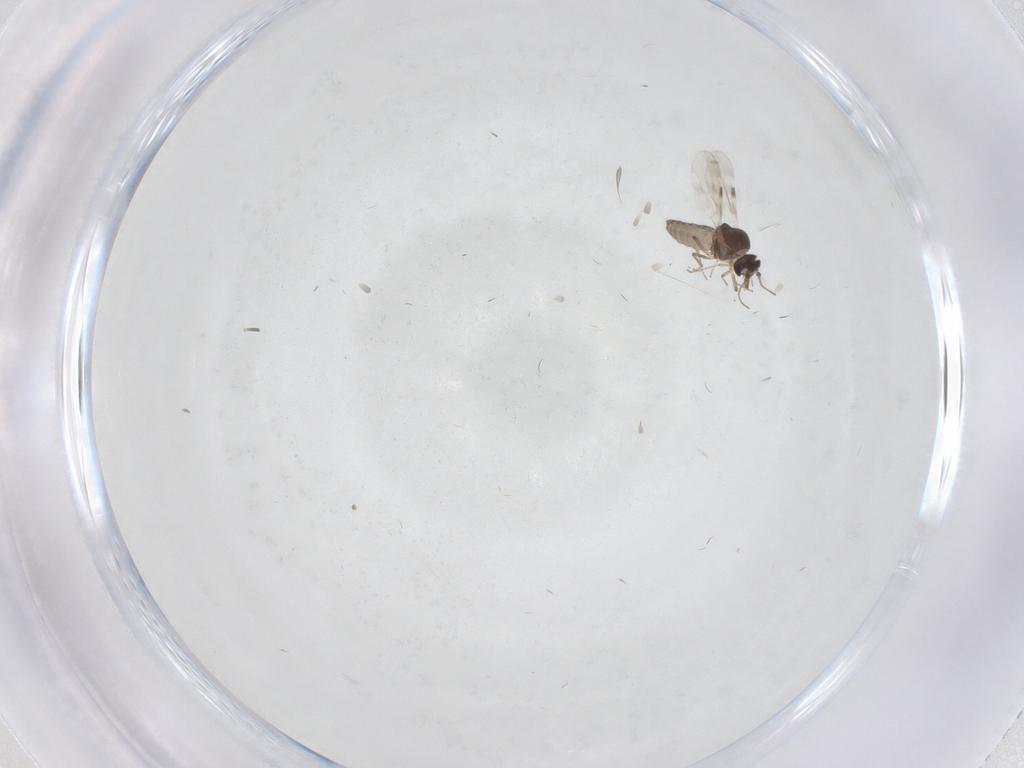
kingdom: Animalia
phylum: Arthropoda
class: Insecta
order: Diptera
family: Ceratopogonidae
